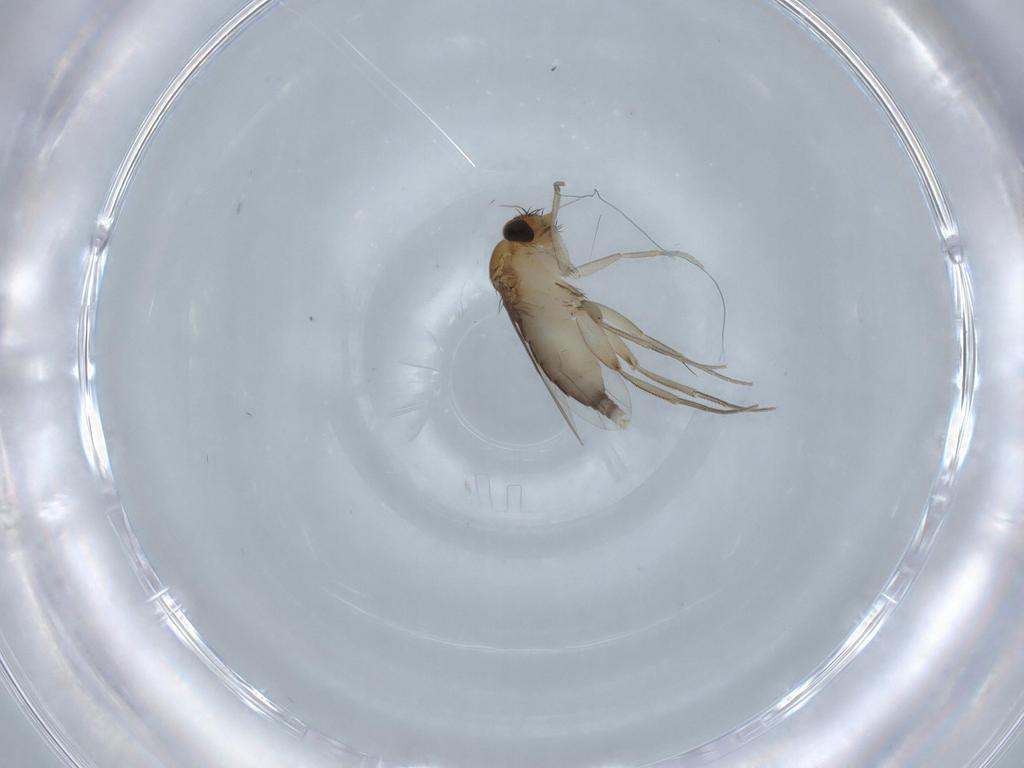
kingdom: Animalia
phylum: Arthropoda
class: Insecta
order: Diptera
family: Phoridae
